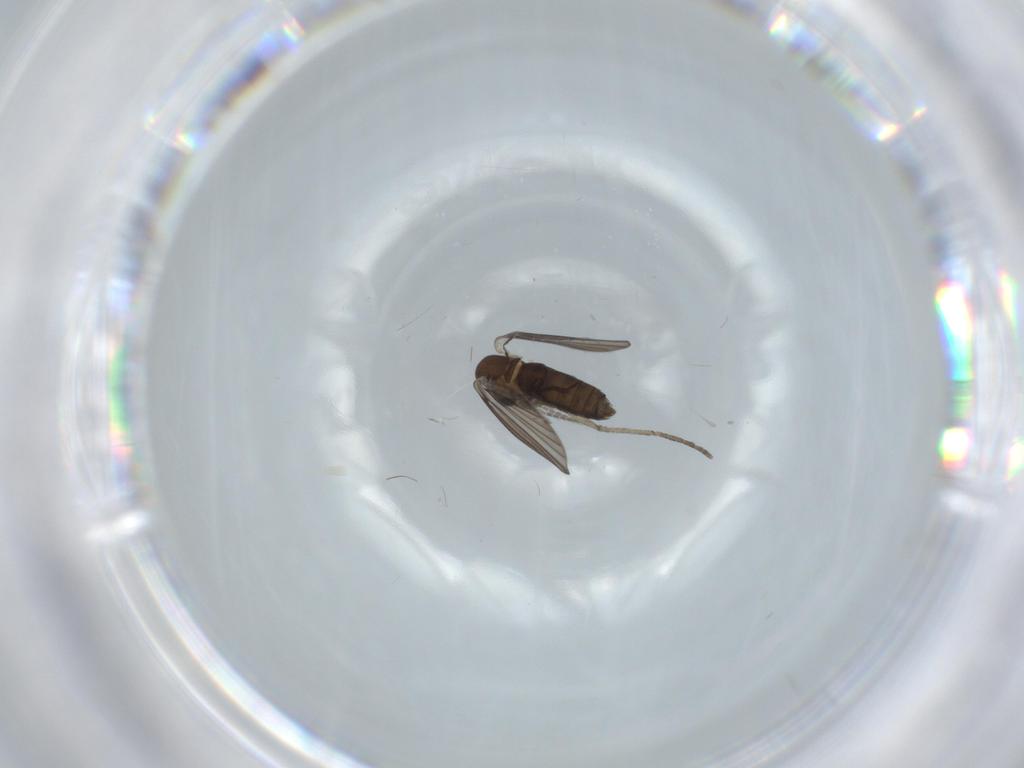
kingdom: Animalia
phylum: Arthropoda
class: Insecta
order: Diptera
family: Cecidomyiidae
